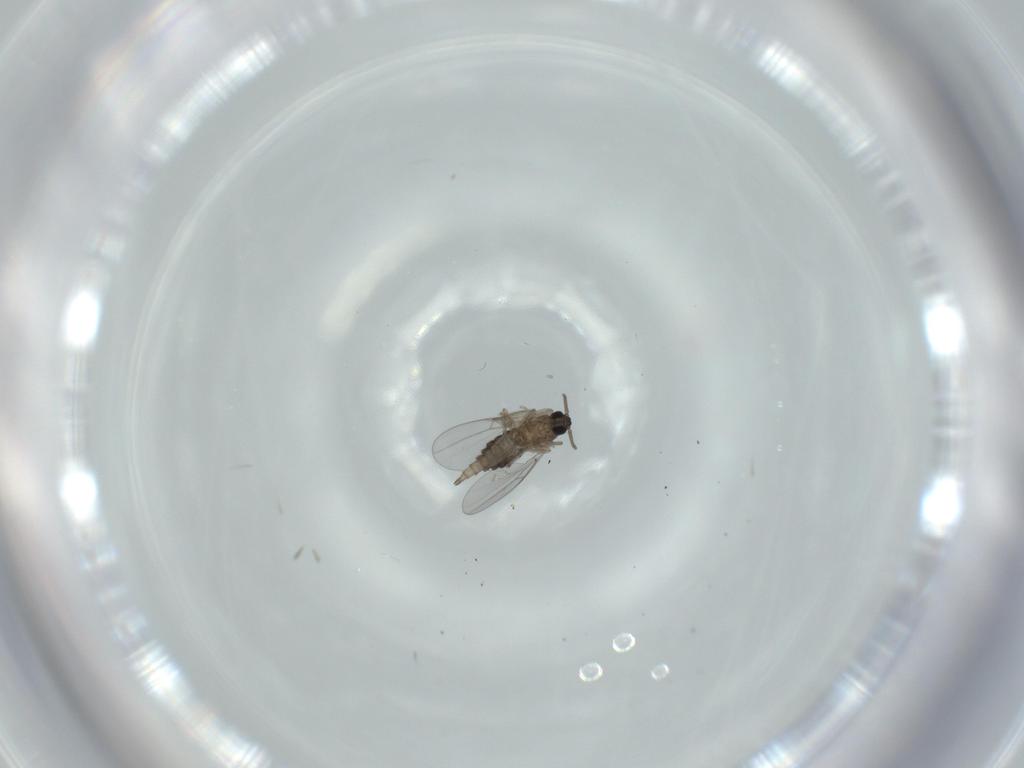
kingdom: Animalia
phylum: Arthropoda
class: Insecta
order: Diptera
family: Cecidomyiidae
